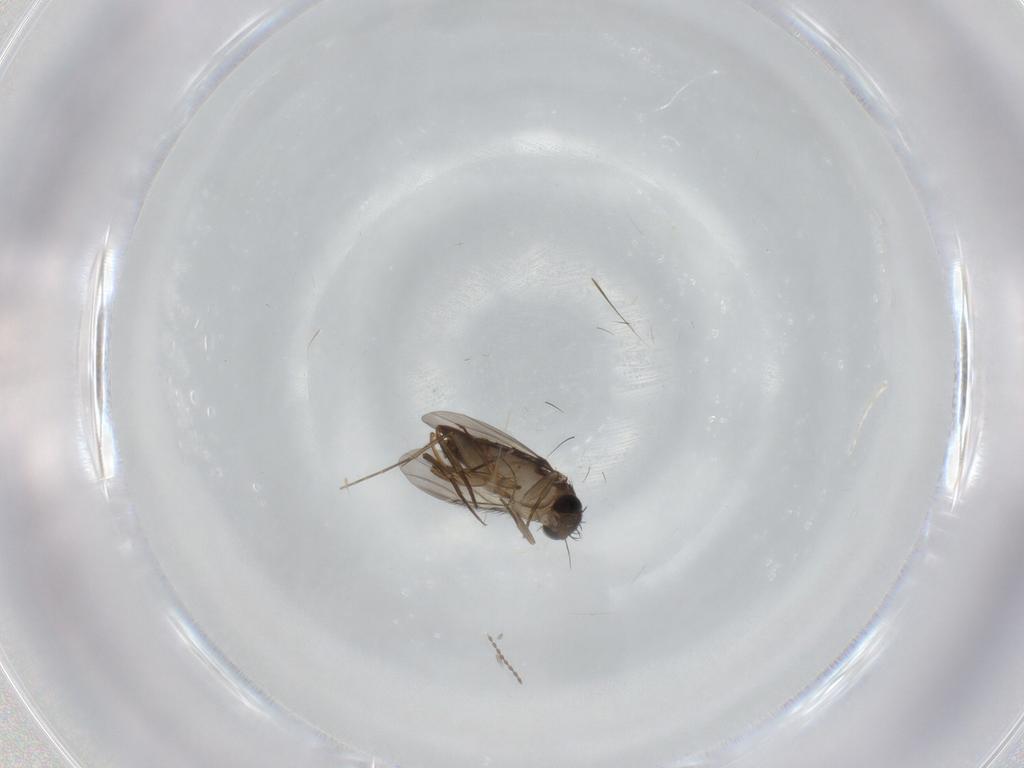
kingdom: Animalia
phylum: Arthropoda
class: Insecta
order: Diptera
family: Phoridae
